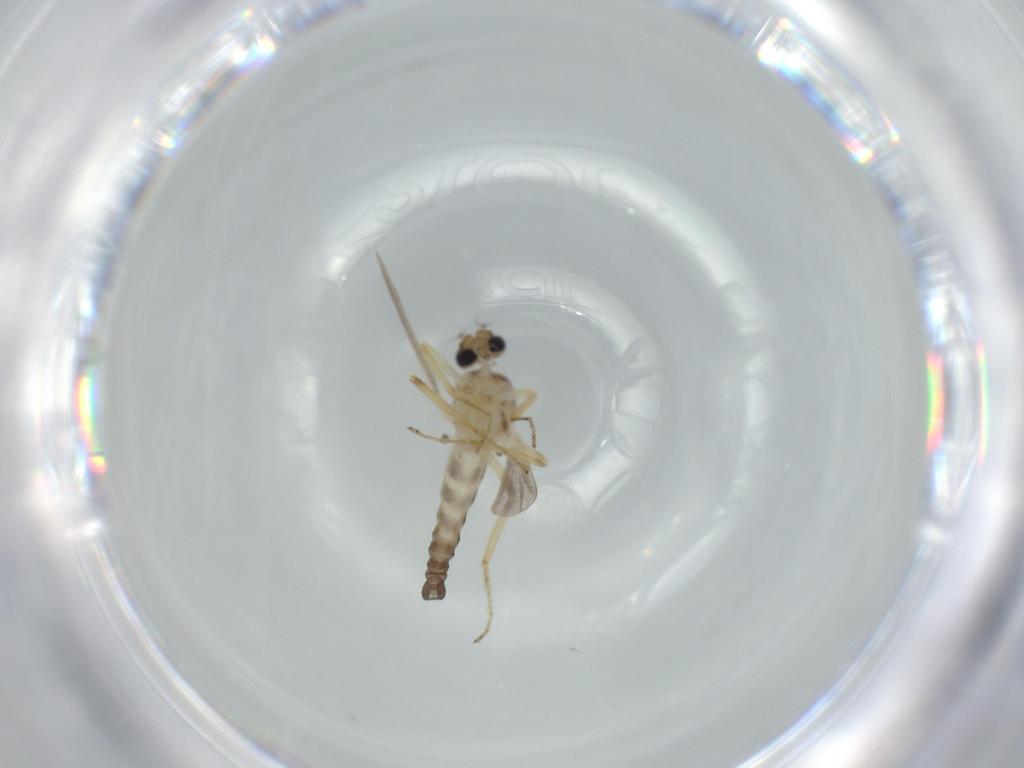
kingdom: Animalia
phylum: Arthropoda
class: Insecta
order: Diptera
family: Ceratopogonidae
